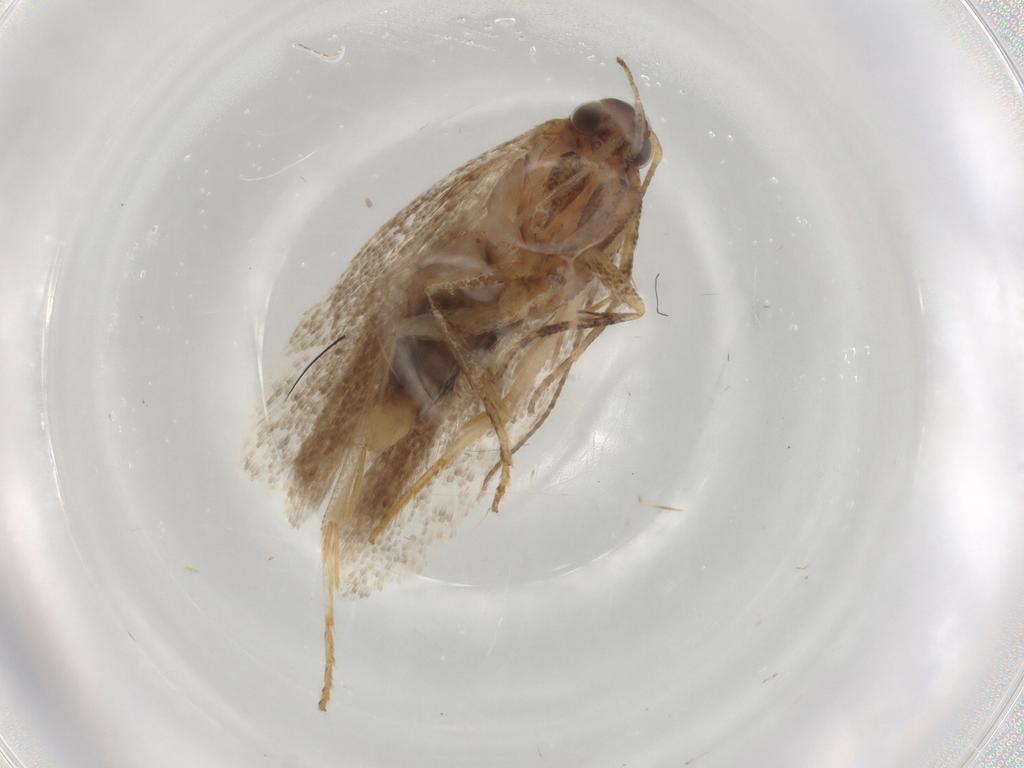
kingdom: Animalia
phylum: Arthropoda
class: Insecta
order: Lepidoptera
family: Gelechiidae
